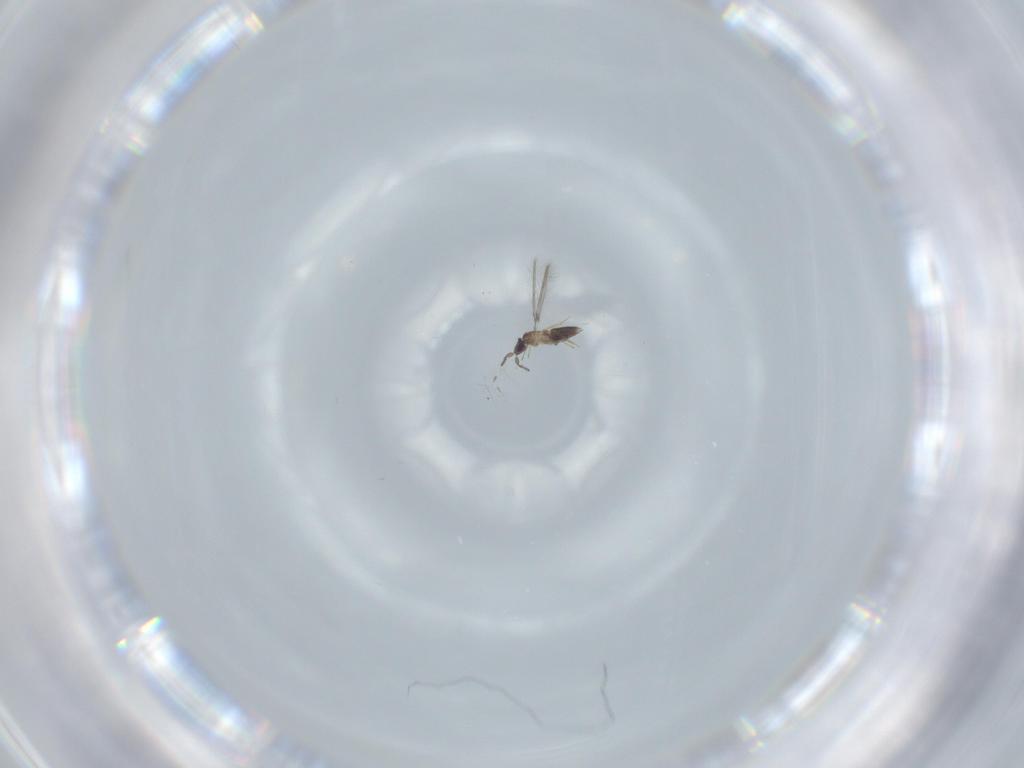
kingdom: Animalia
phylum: Arthropoda
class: Insecta
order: Hymenoptera
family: Mymaridae
